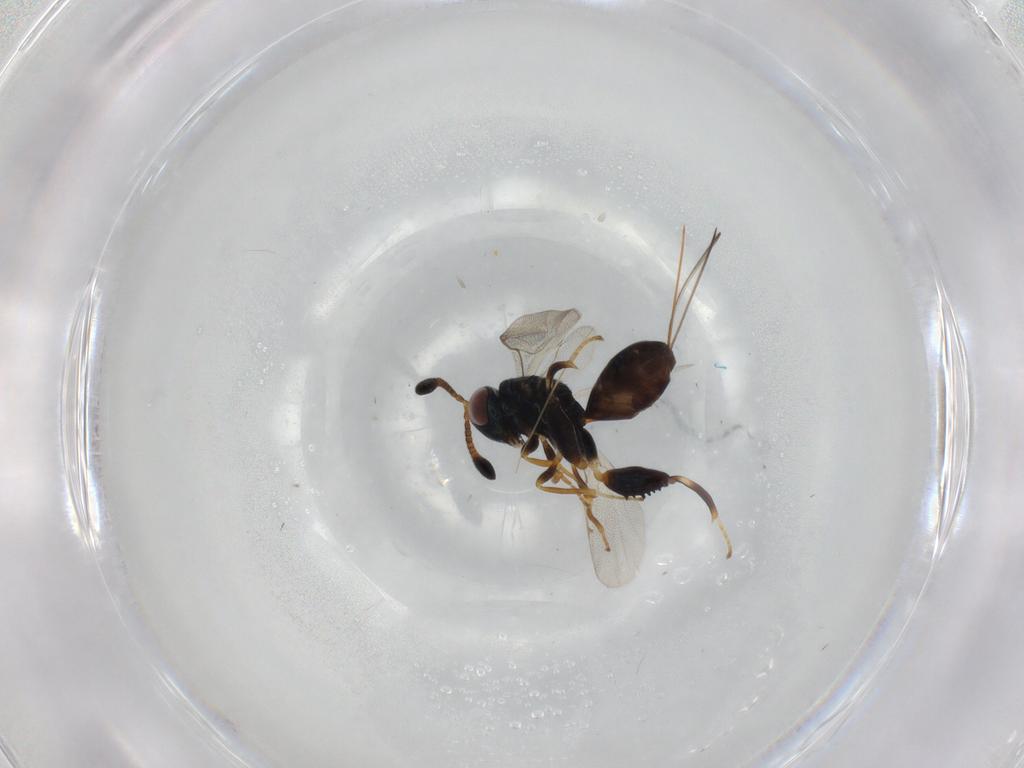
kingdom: Animalia
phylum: Arthropoda
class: Insecta
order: Hymenoptera
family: Torymidae
